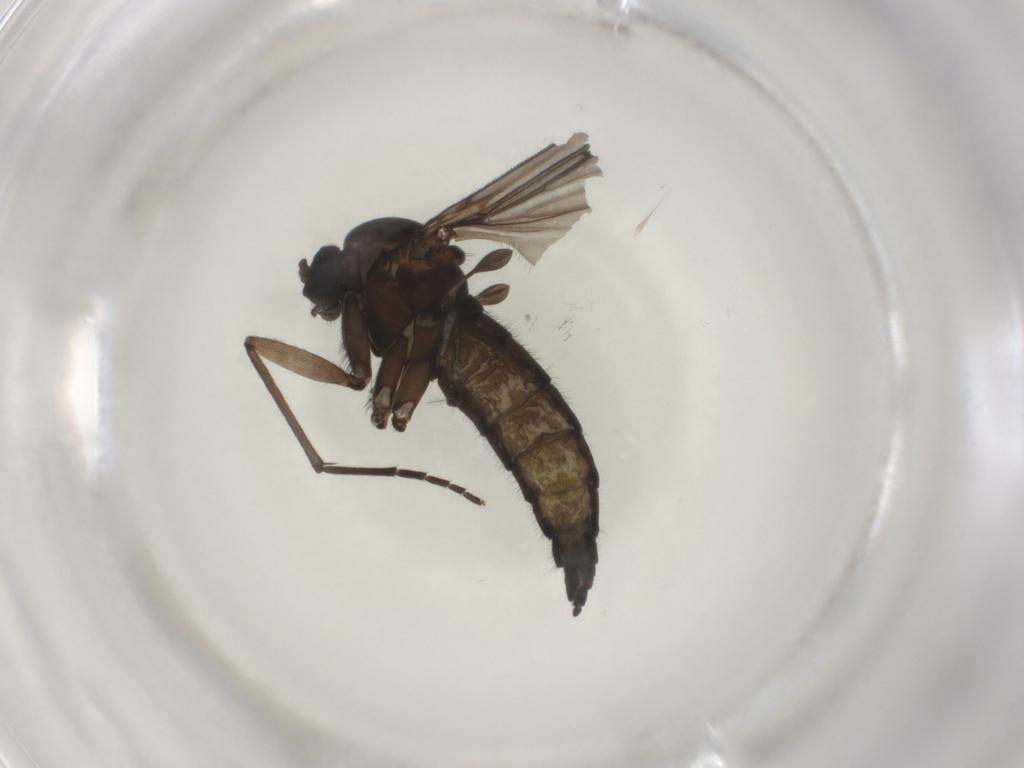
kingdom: Animalia
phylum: Arthropoda
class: Insecta
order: Diptera
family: Sciaridae
